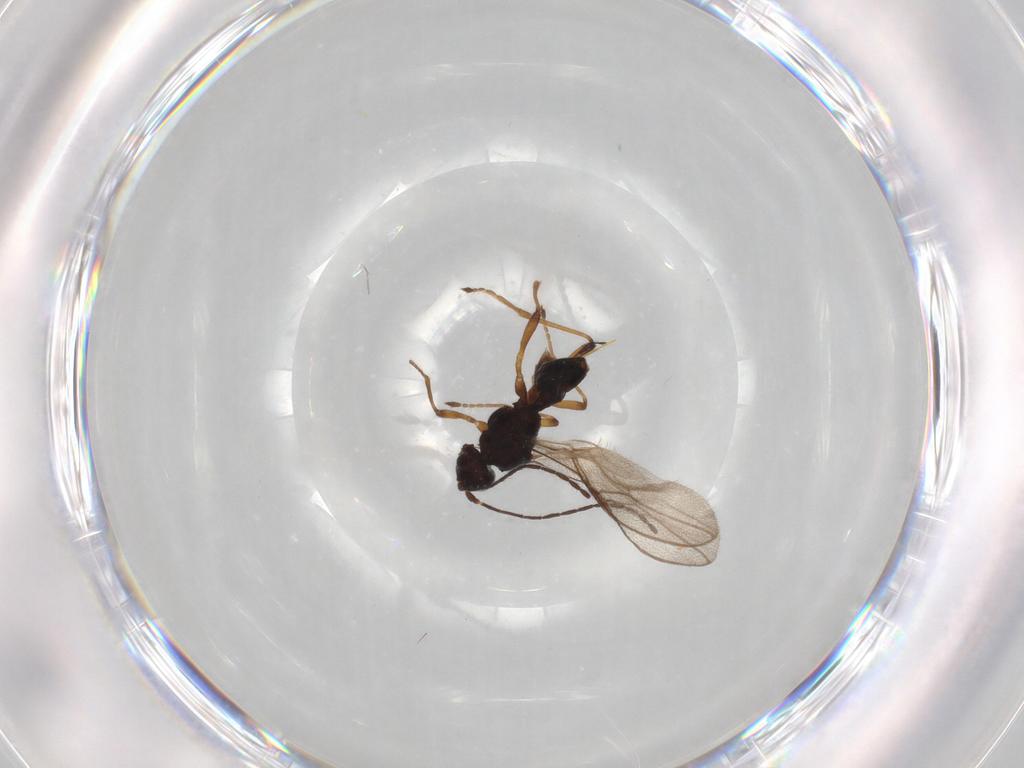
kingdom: Animalia
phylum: Arthropoda
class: Insecta
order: Hymenoptera
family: Braconidae
